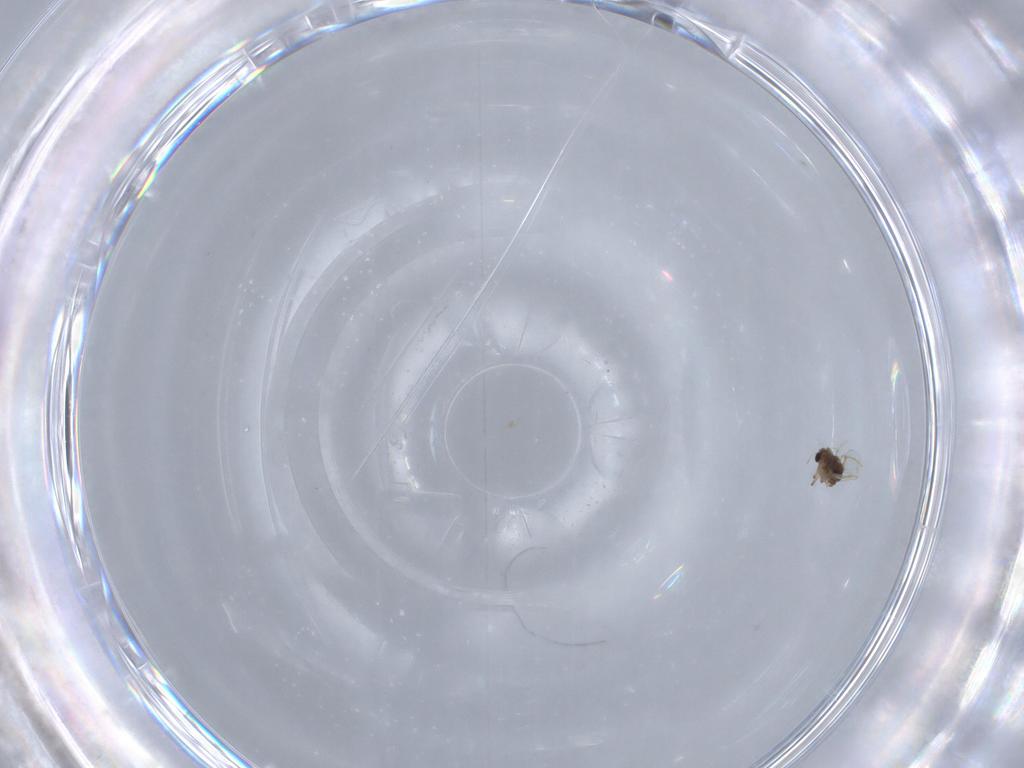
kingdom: Animalia
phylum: Arthropoda
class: Insecta
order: Diptera
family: Chironomidae
